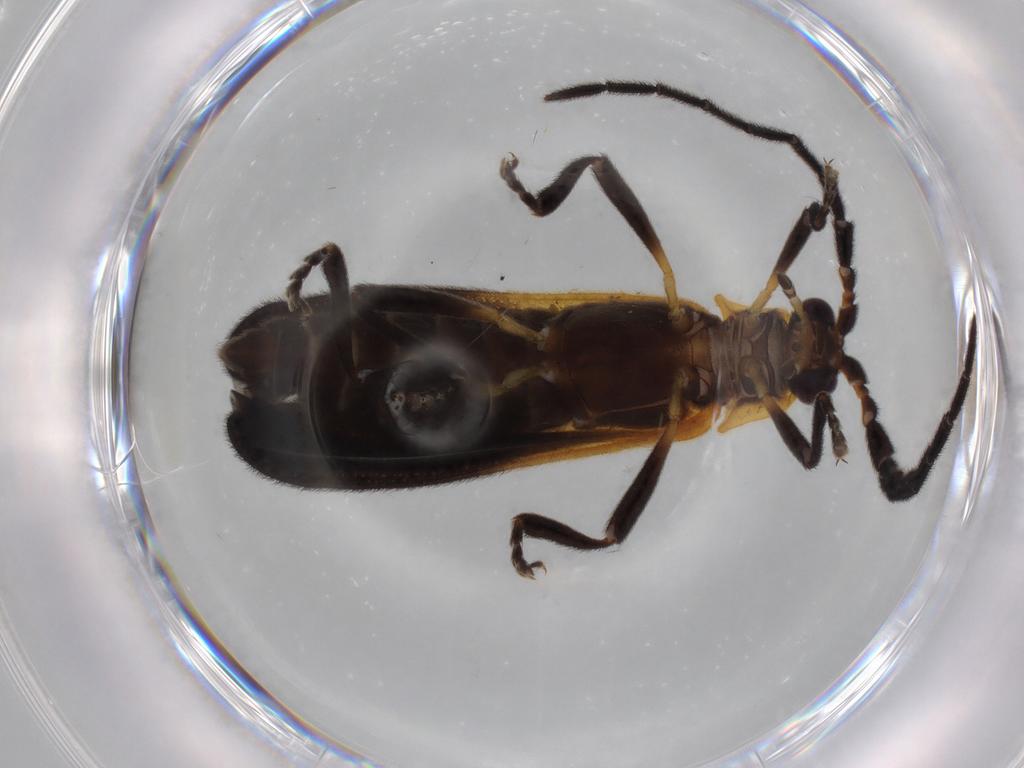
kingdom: Animalia
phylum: Arthropoda
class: Insecta
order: Coleoptera
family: Lycidae
